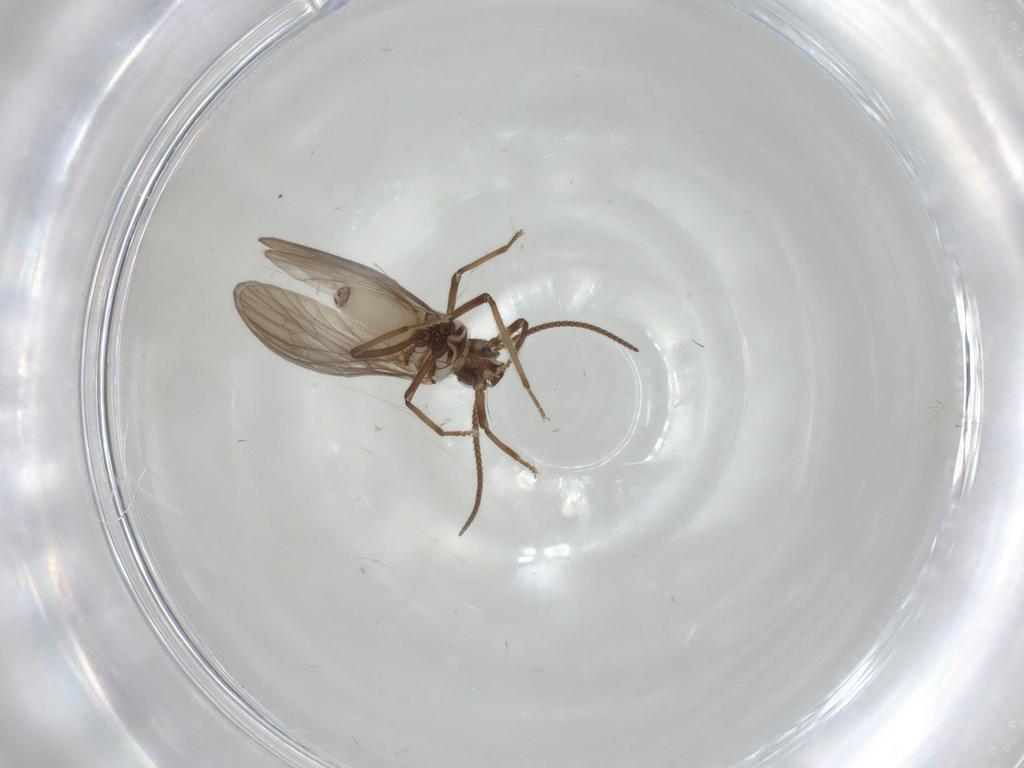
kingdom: Animalia
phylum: Arthropoda
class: Insecta
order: Neuroptera
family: Coniopterygidae
